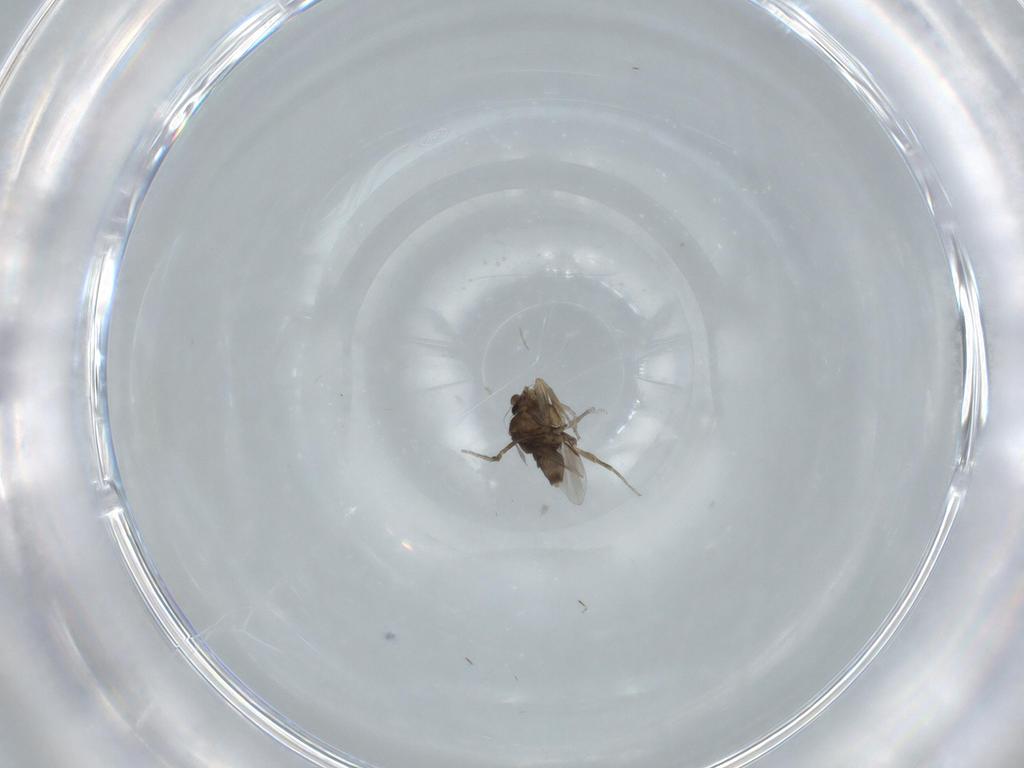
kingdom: Animalia
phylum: Arthropoda
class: Insecta
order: Diptera
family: Phoridae
